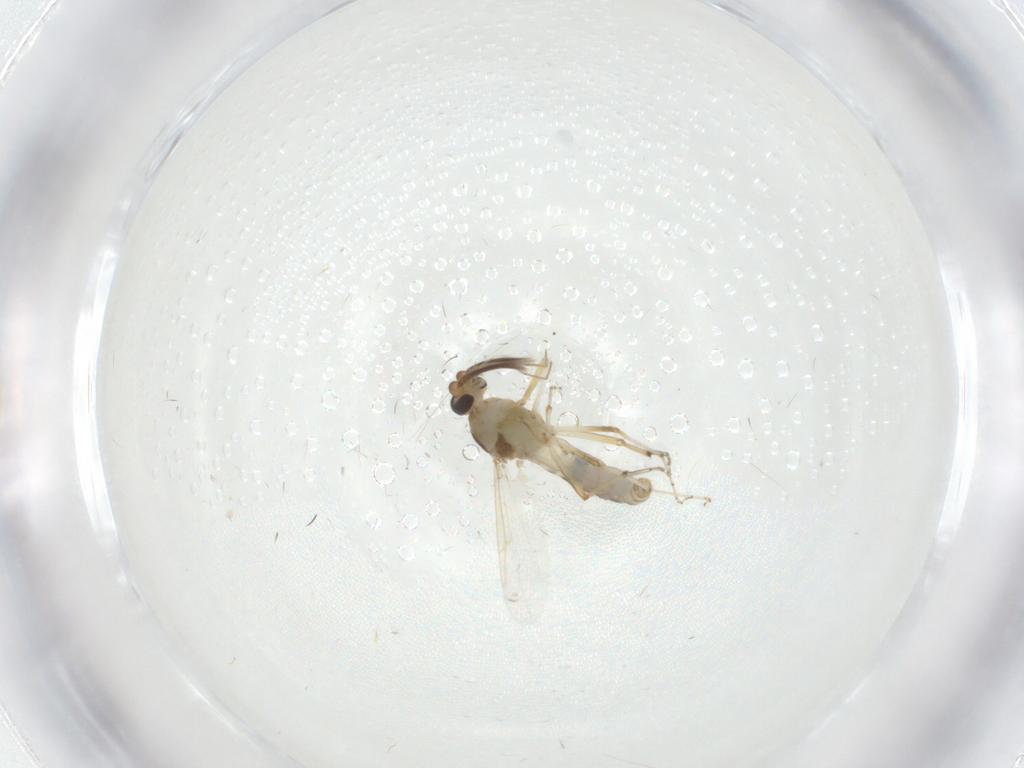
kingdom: Animalia
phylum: Arthropoda
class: Insecta
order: Diptera
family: Ceratopogonidae
